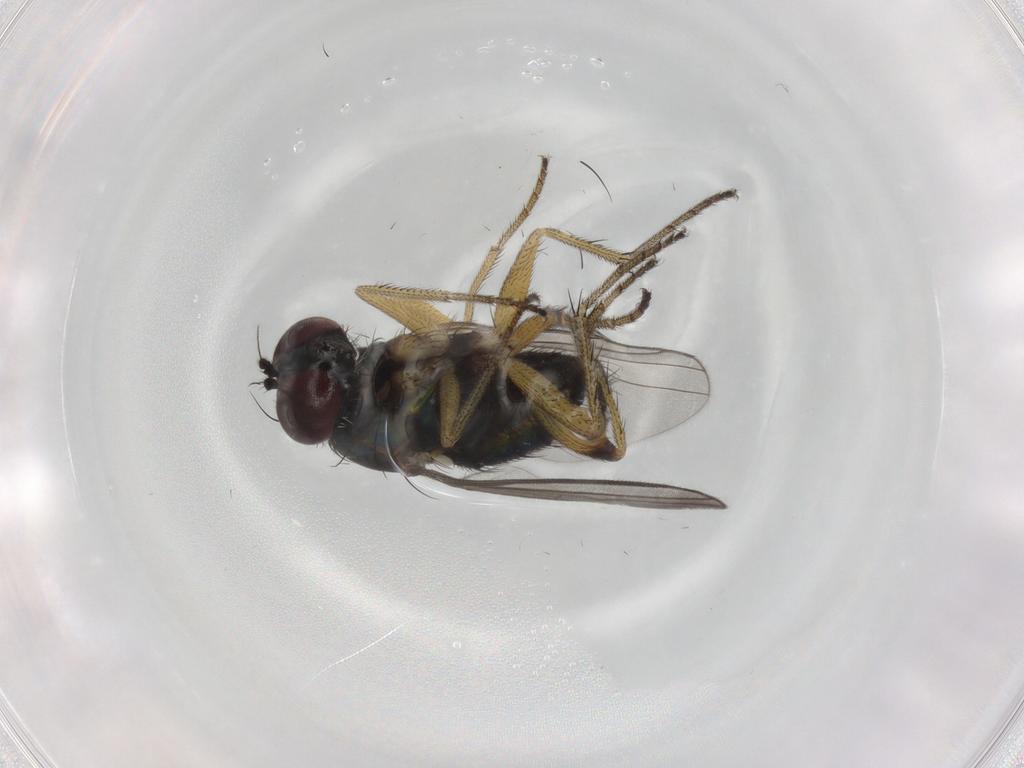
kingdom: Animalia
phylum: Arthropoda
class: Insecta
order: Diptera
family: Dolichopodidae
